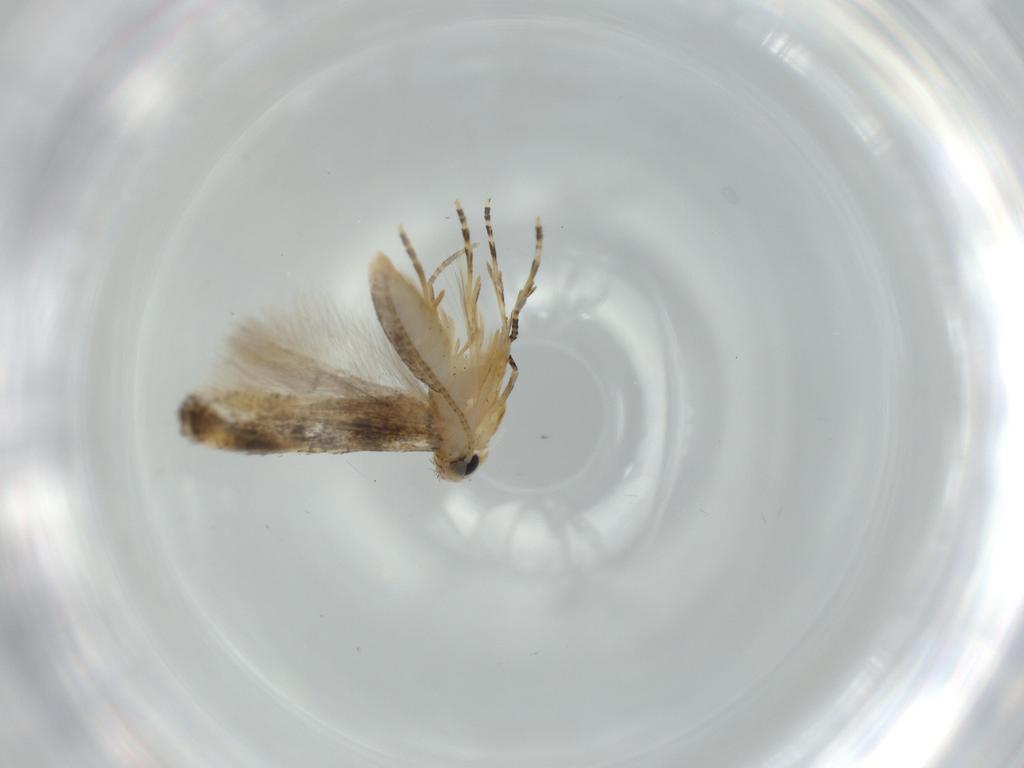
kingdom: Animalia
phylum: Arthropoda
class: Insecta
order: Lepidoptera
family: Bucculatricidae
